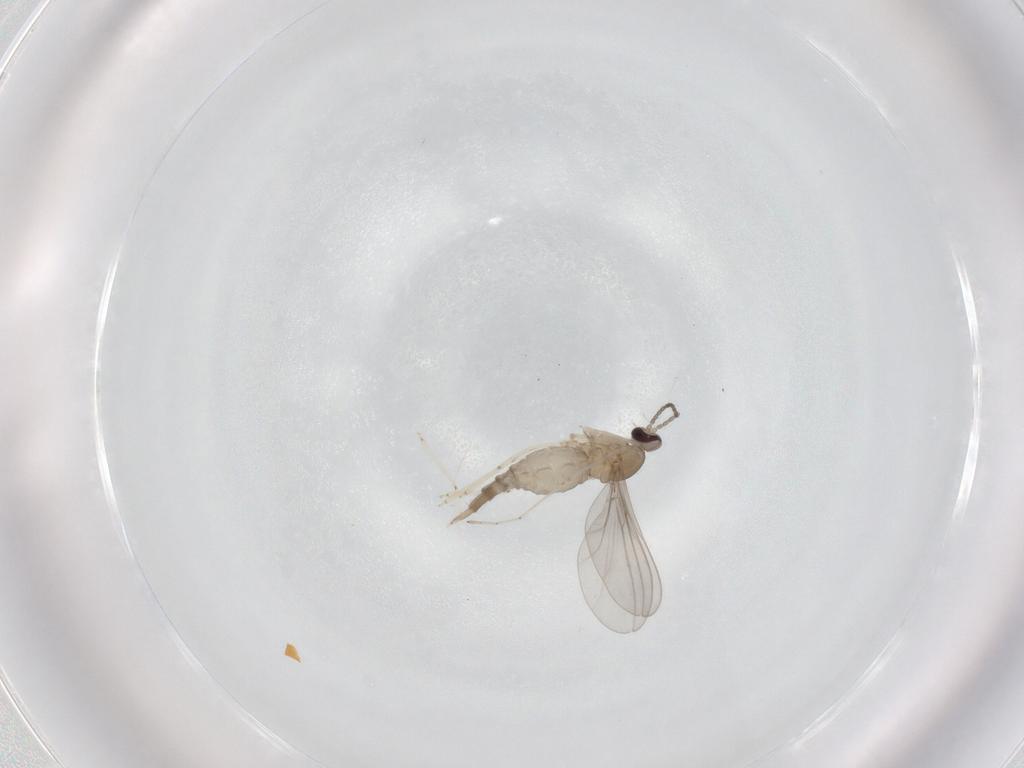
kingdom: Animalia
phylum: Arthropoda
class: Insecta
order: Diptera
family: Cecidomyiidae
